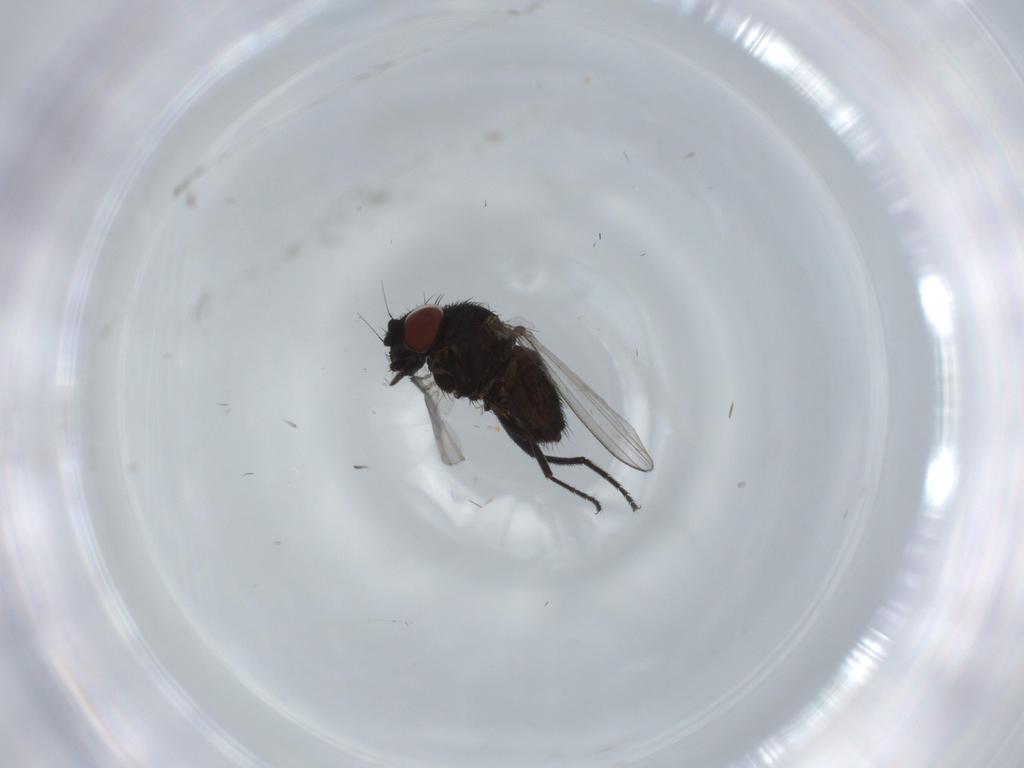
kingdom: Animalia
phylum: Arthropoda
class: Insecta
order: Diptera
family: Milichiidae
